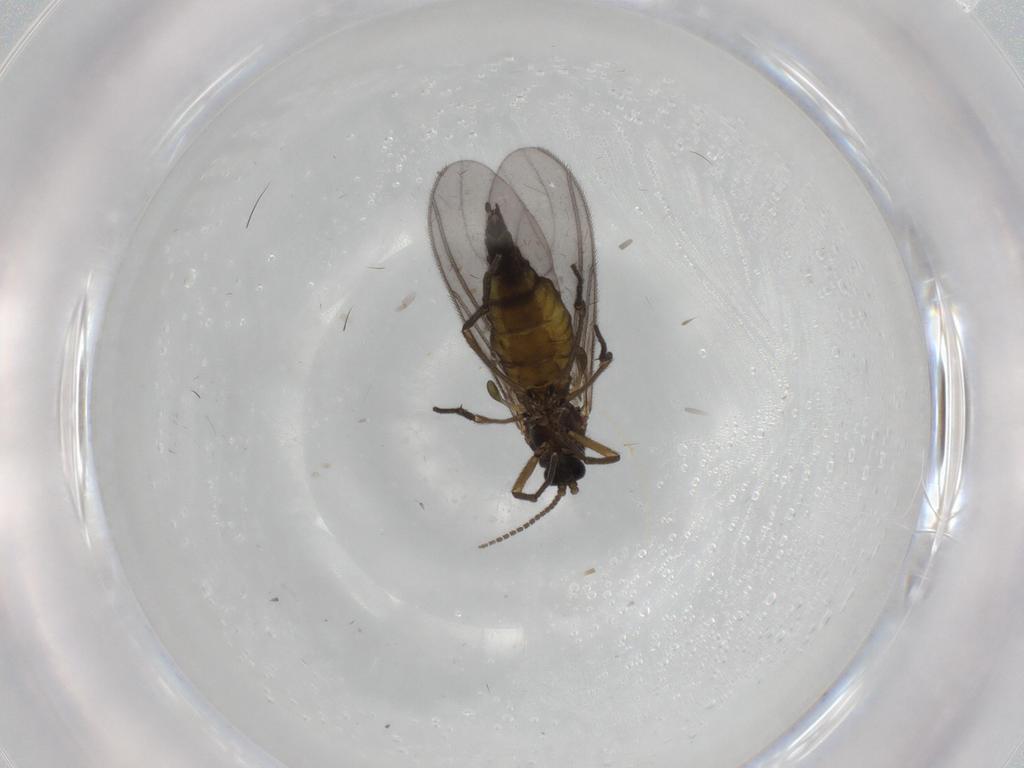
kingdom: Animalia
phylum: Arthropoda
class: Insecta
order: Diptera
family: Sciaridae
